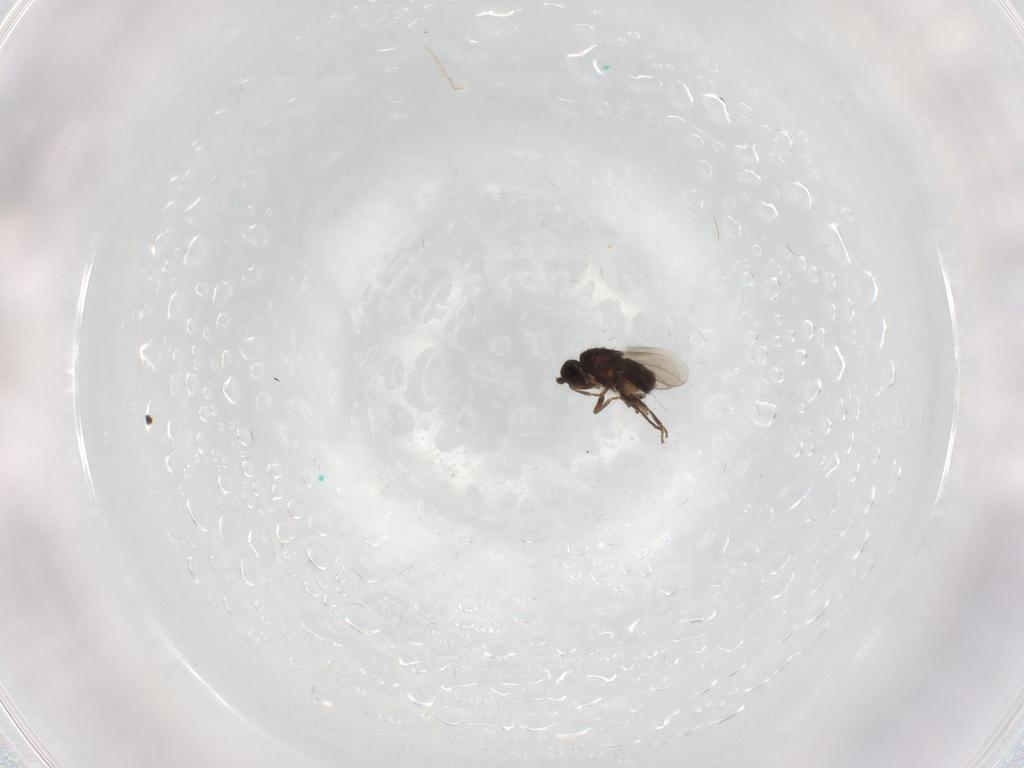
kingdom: Animalia
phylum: Arthropoda
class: Insecta
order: Diptera
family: Sphaeroceridae
